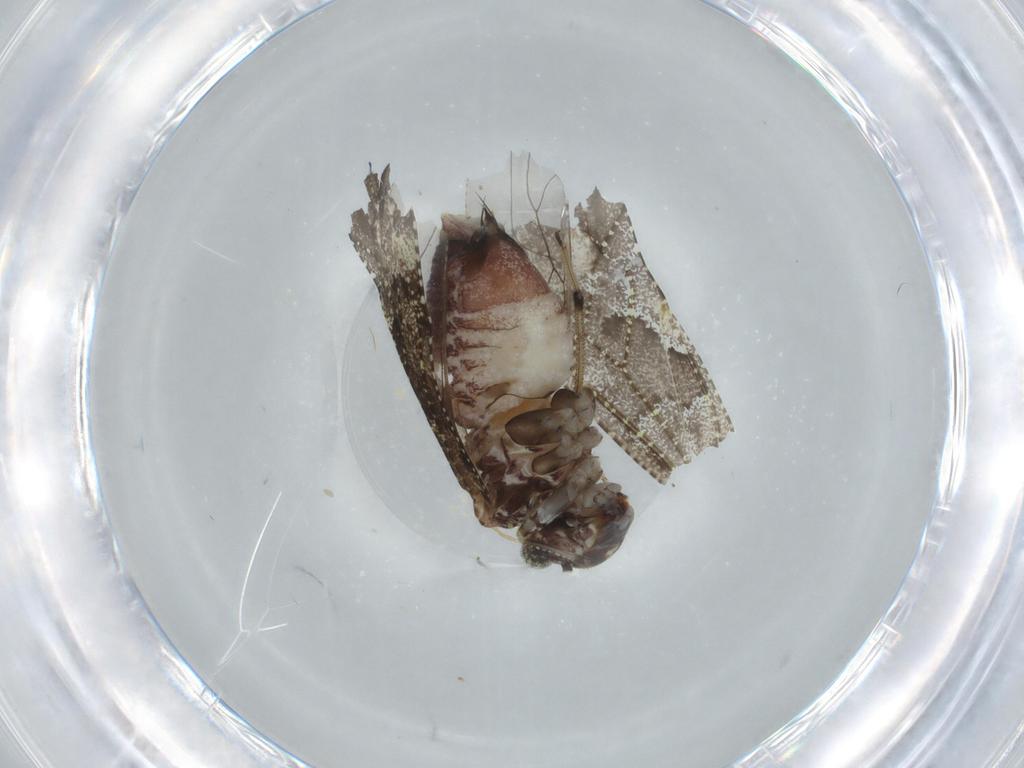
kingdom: Animalia
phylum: Arthropoda
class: Insecta
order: Psocodea
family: Myopsocidae
